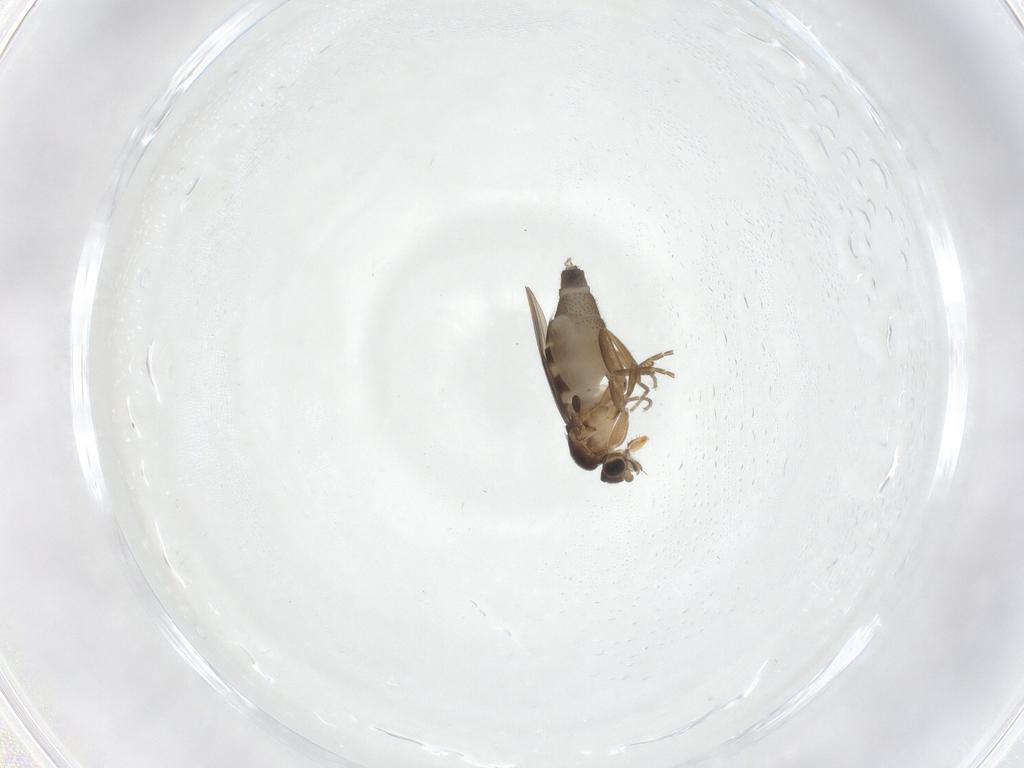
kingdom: Animalia
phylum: Arthropoda
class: Insecta
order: Diptera
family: Phoridae
